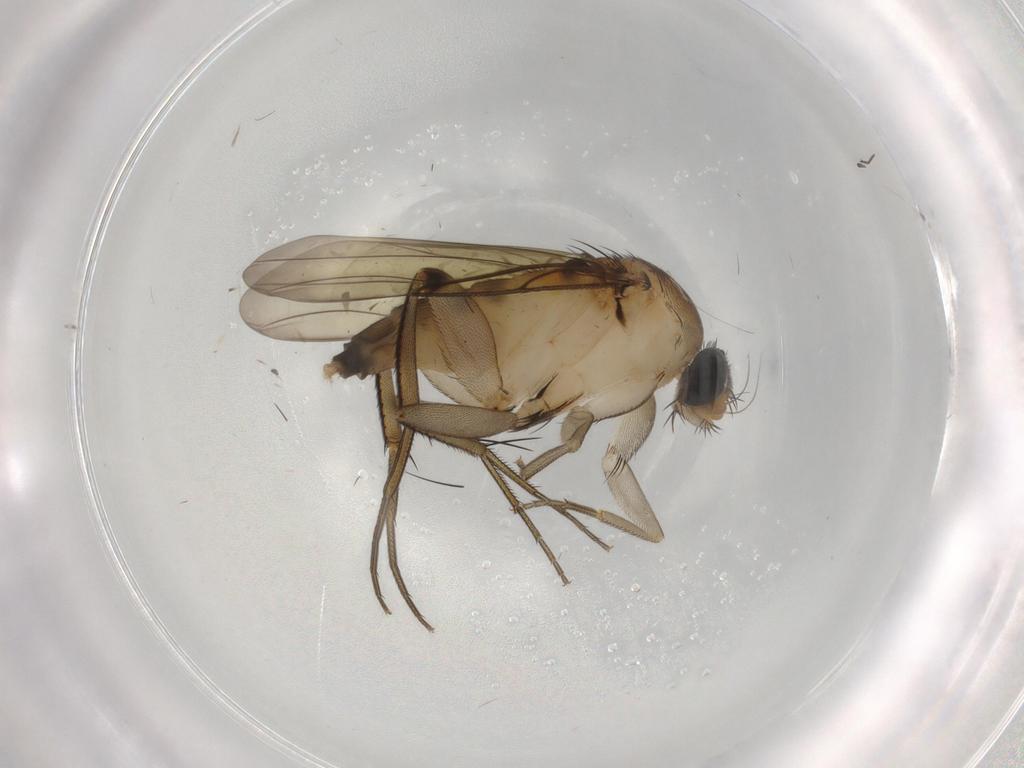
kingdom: Animalia
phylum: Arthropoda
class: Insecta
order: Diptera
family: Phoridae
